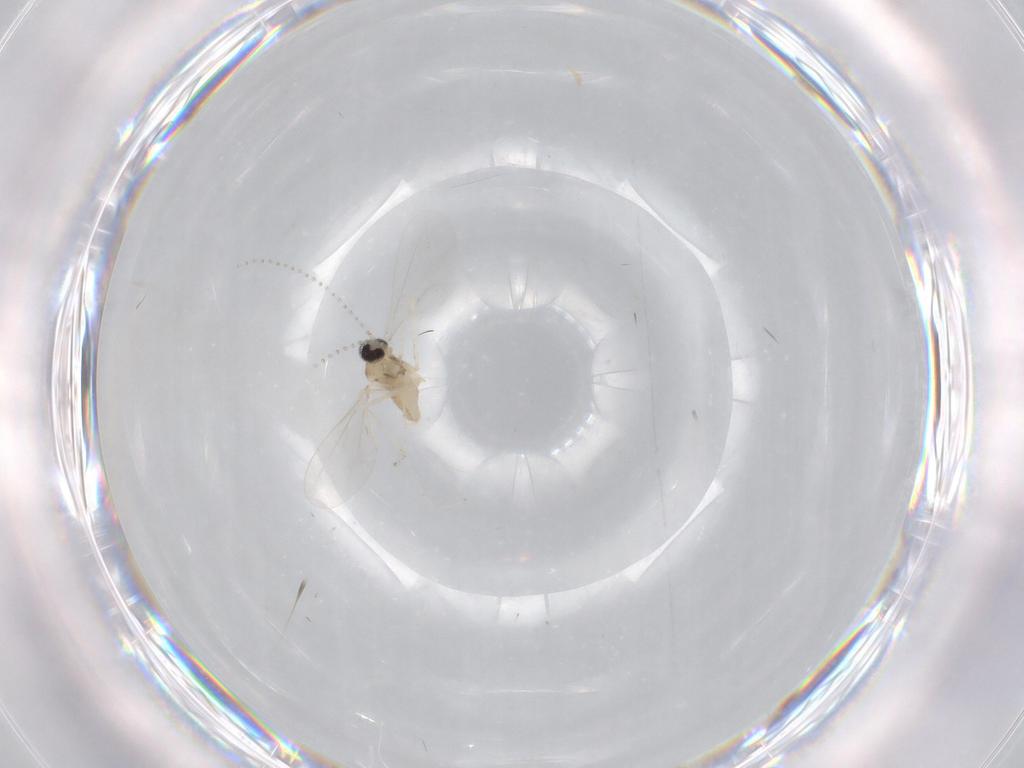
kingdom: Animalia
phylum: Arthropoda
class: Insecta
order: Diptera
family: Cecidomyiidae
